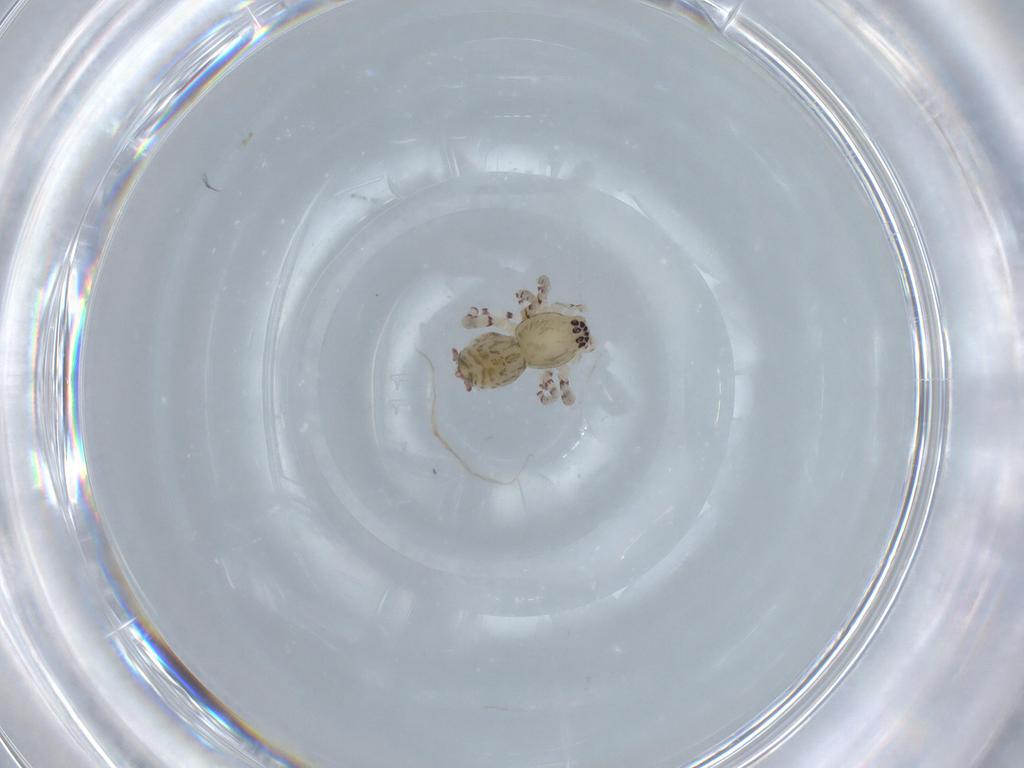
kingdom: Animalia
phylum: Arthropoda
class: Arachnida
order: Araneae
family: Anyphaenidae
